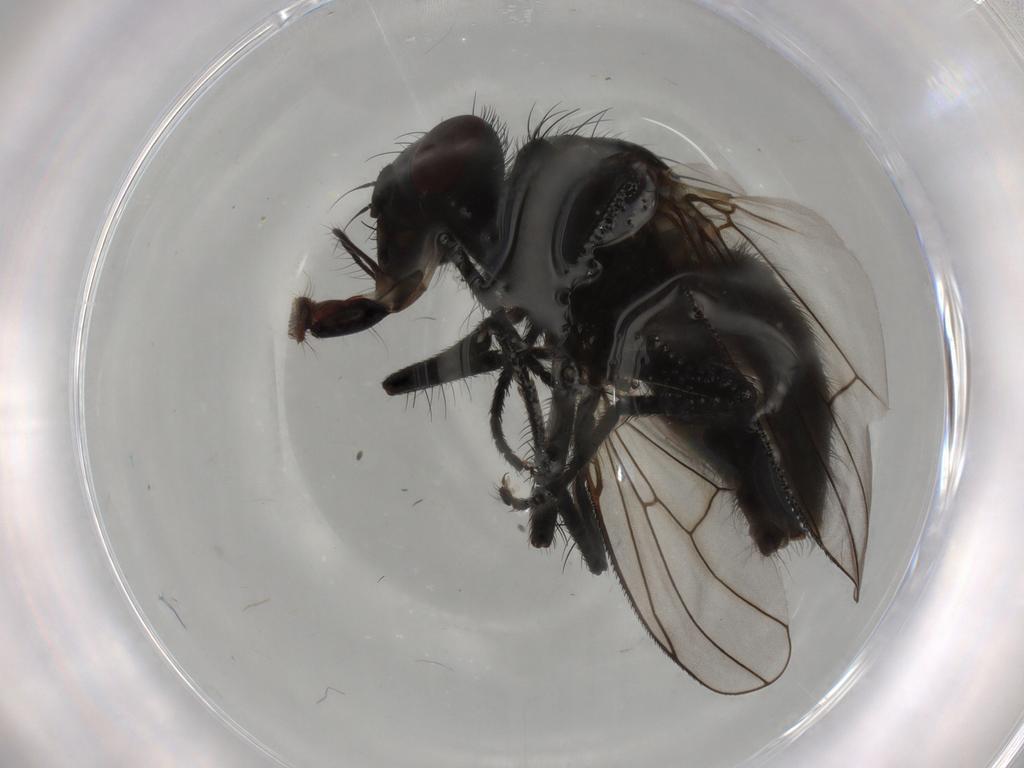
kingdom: Animalia
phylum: Arthropoda
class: Insecta
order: Diptera
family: Muscidae
